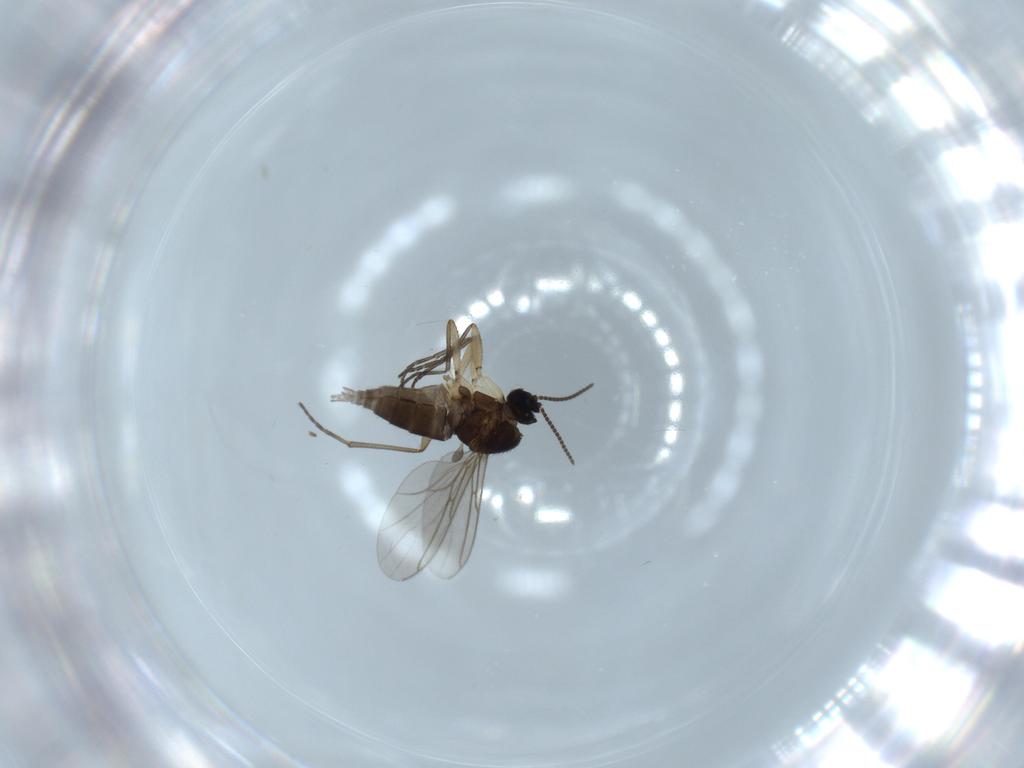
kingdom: Animalia
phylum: Arthropoda
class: Insecta
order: Diptera
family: Sciaridae
